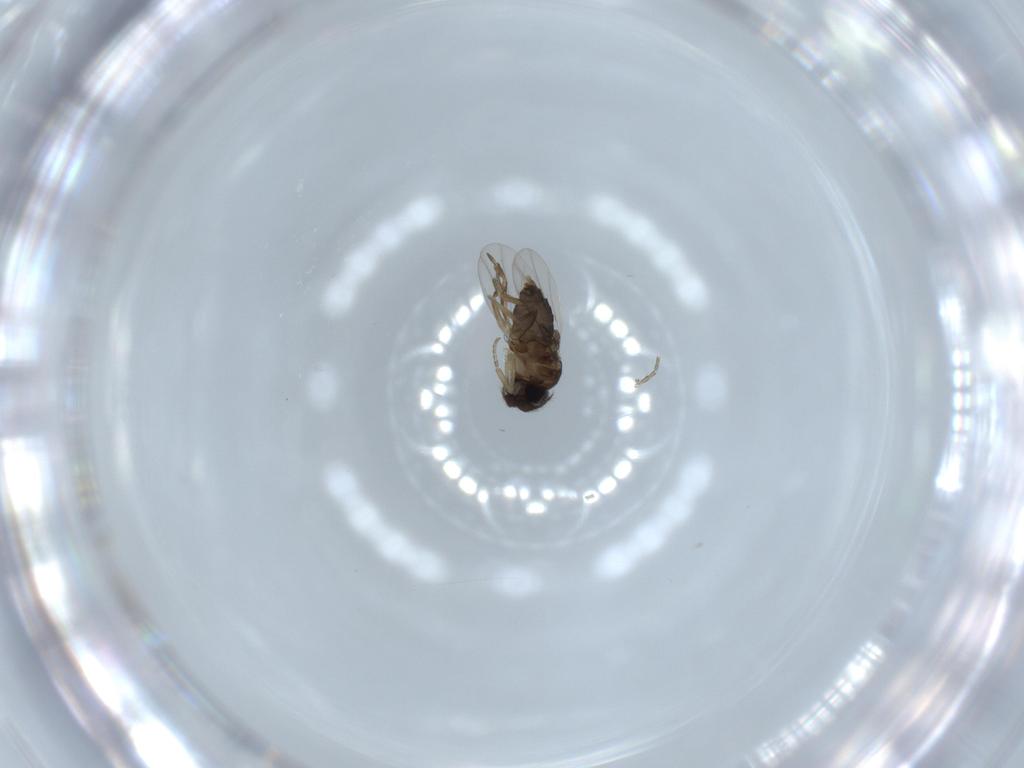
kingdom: Animalia
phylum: Arthropoda
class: Insecta
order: Diptera
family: Phoridae
